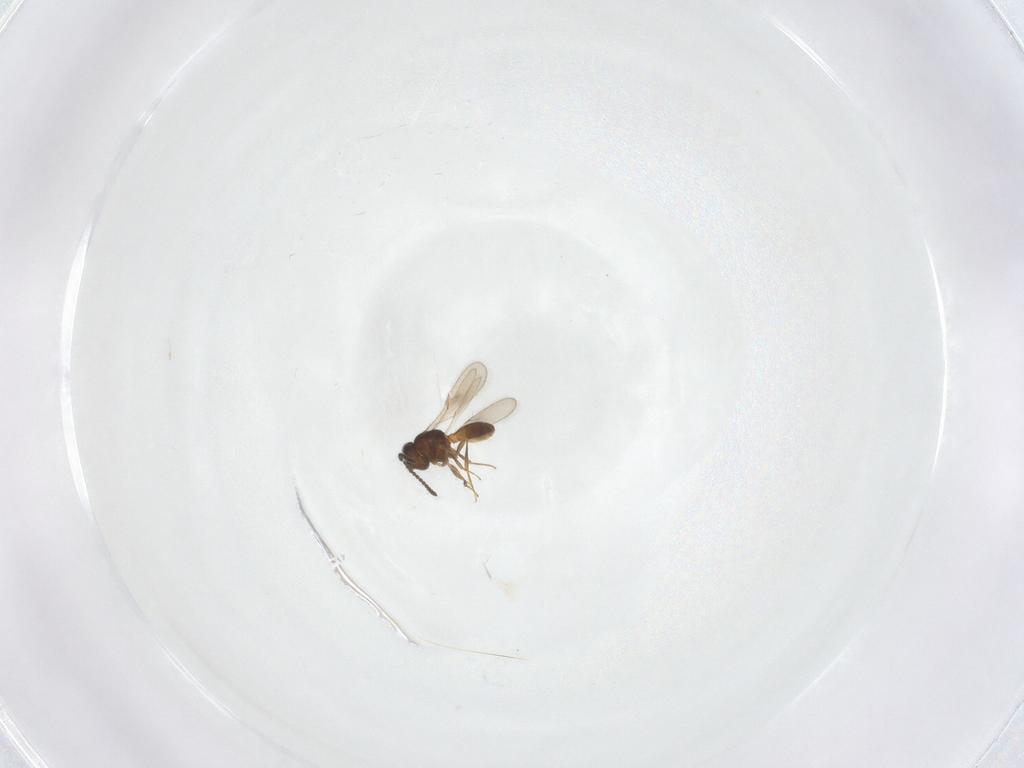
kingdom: Animalia
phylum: Arthropoda
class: Insecta
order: Hymenoptera
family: Scelionidae
